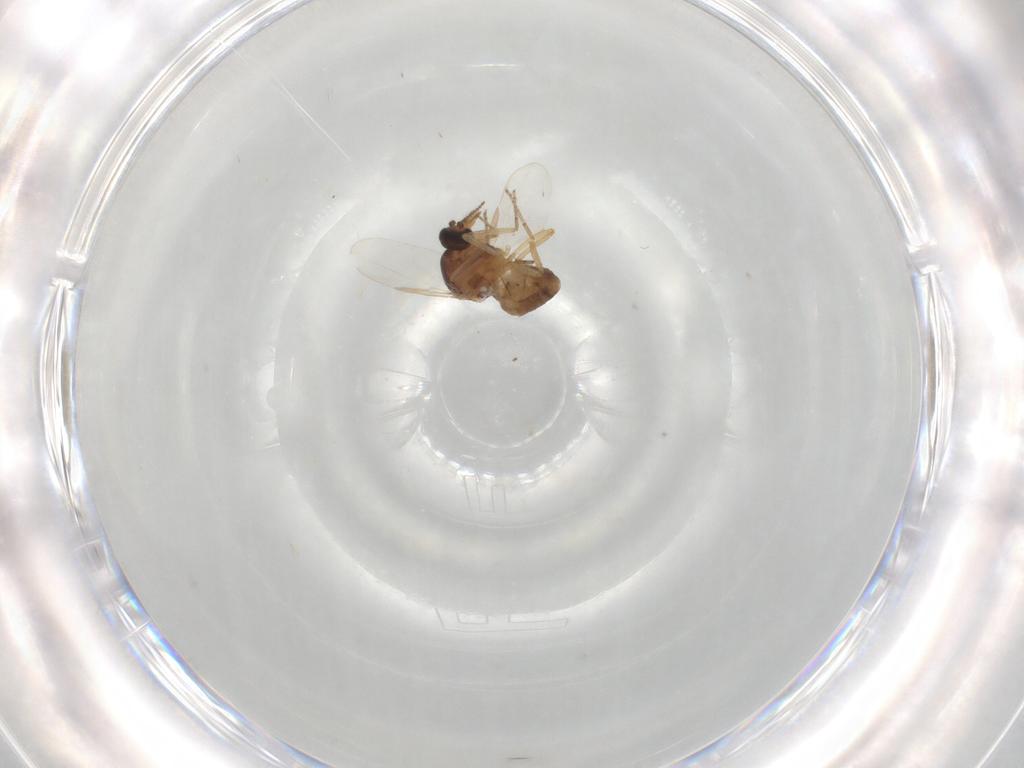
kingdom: Animalia
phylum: Arthropoda
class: Insecta
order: Diptera
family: Ceratopogonidae
